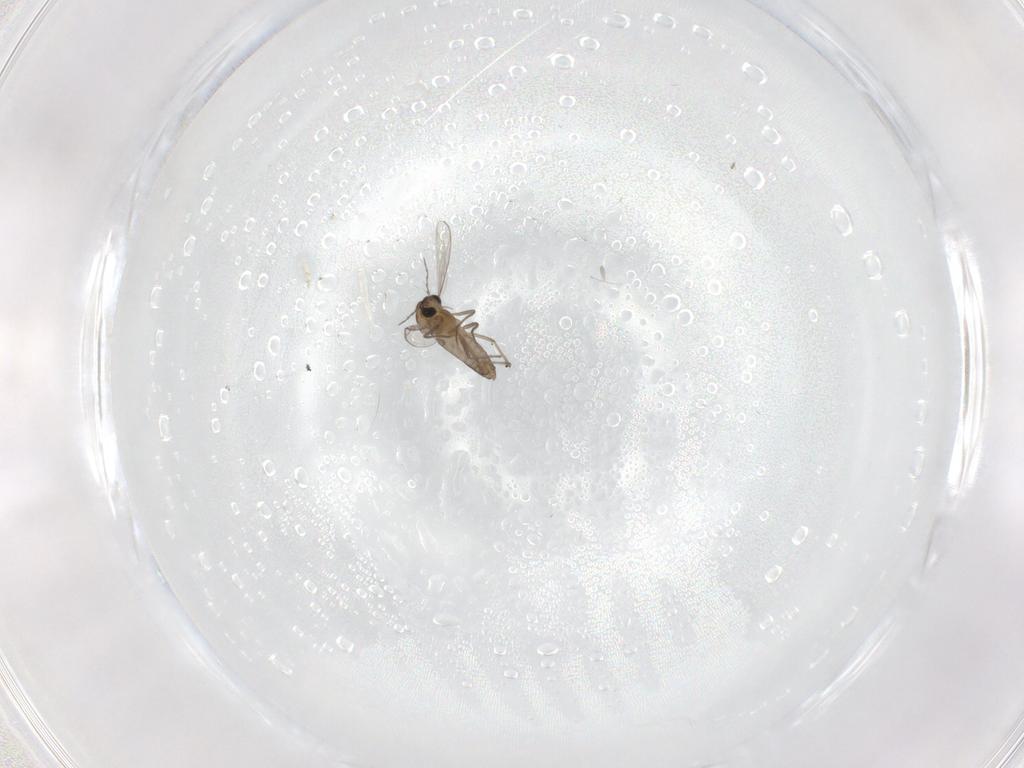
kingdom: Animalia
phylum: Arthropoda
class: Insecta
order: Diptera
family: Chironomidae
